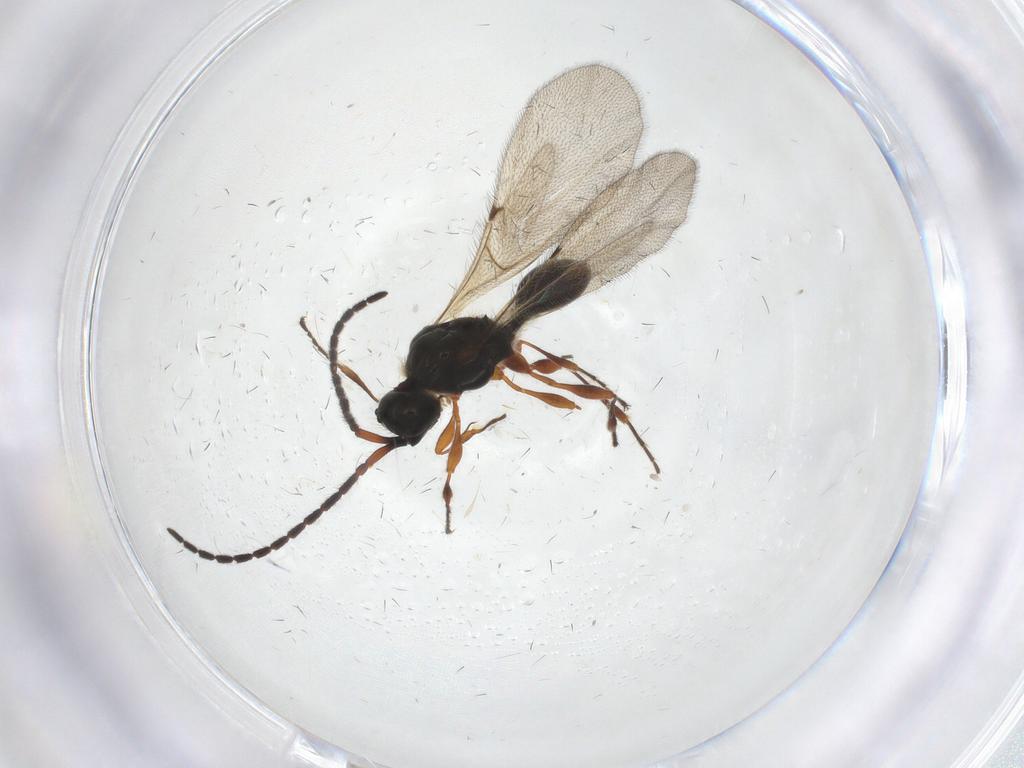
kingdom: Animalia
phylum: Arthropoda
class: Insecta
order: Hymenoptera
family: Diapriidae
